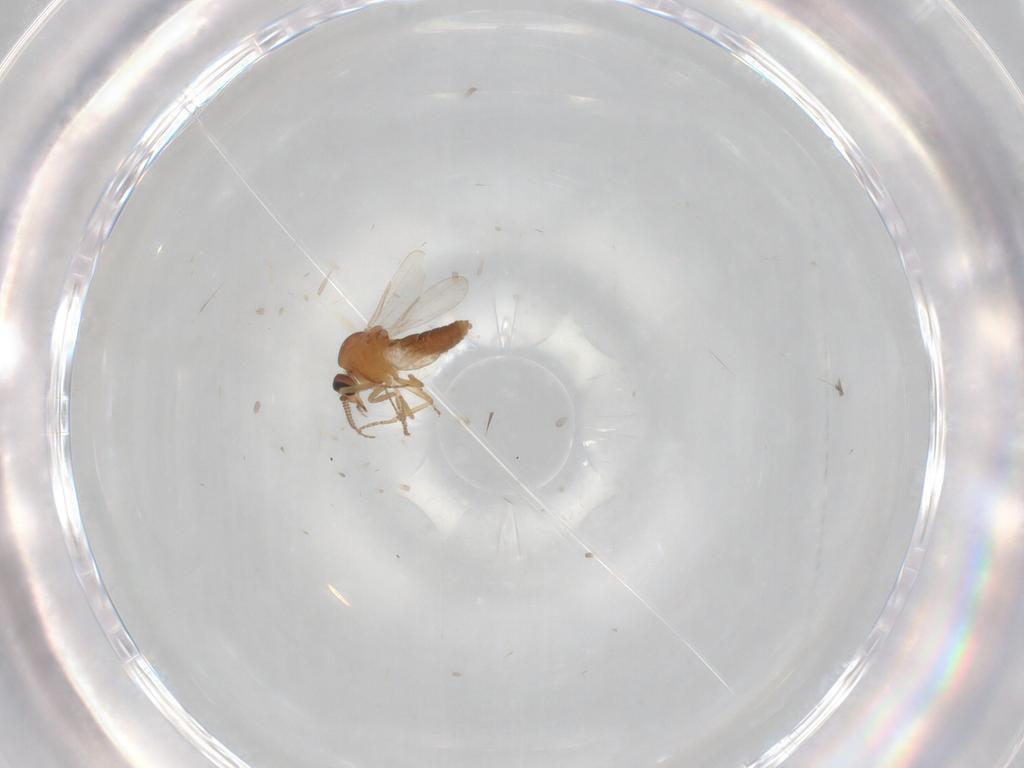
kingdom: Animalia
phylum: Arthropoda
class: Insecta
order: Diptera
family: Ceratopogonidae
